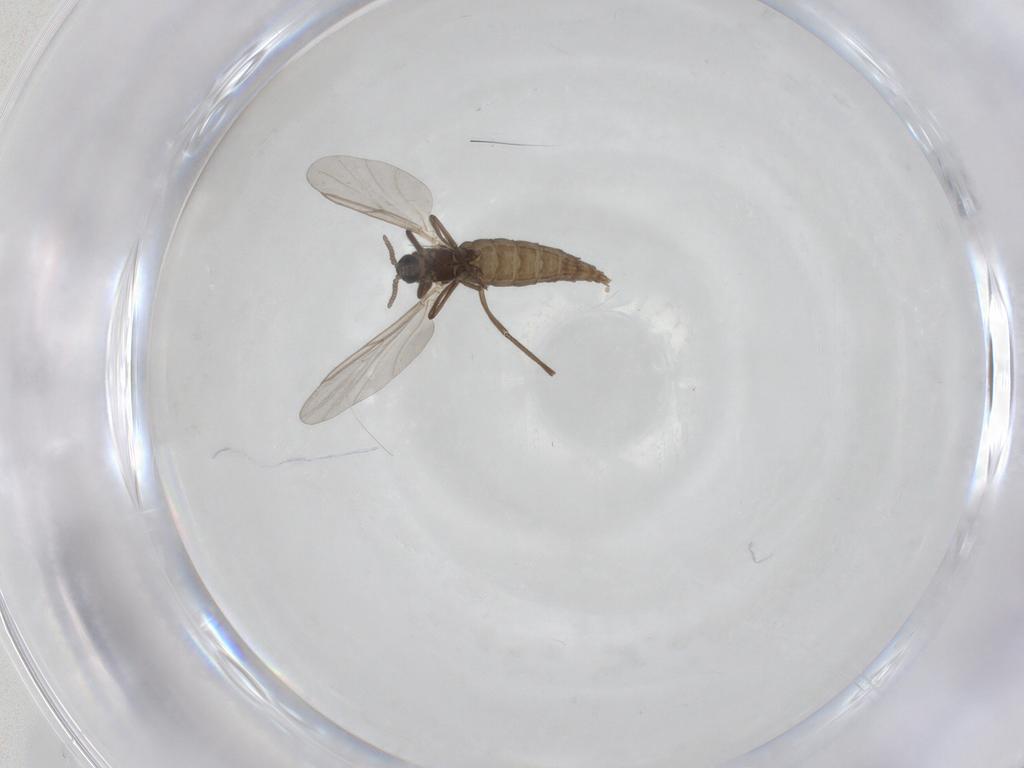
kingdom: Animalia
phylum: Arthropoda
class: Insecta
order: Diptera
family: Cecidomyiidae
